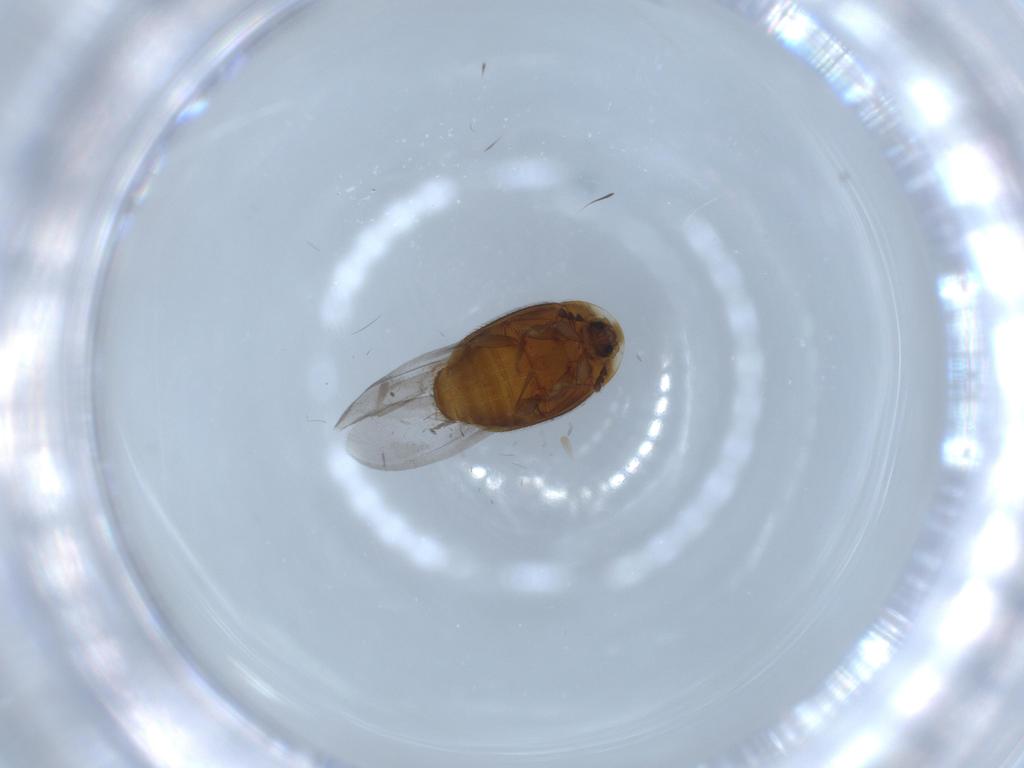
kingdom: Animalia
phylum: Arthropoda
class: Insecta
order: Coleoptera
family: Corylophidae
